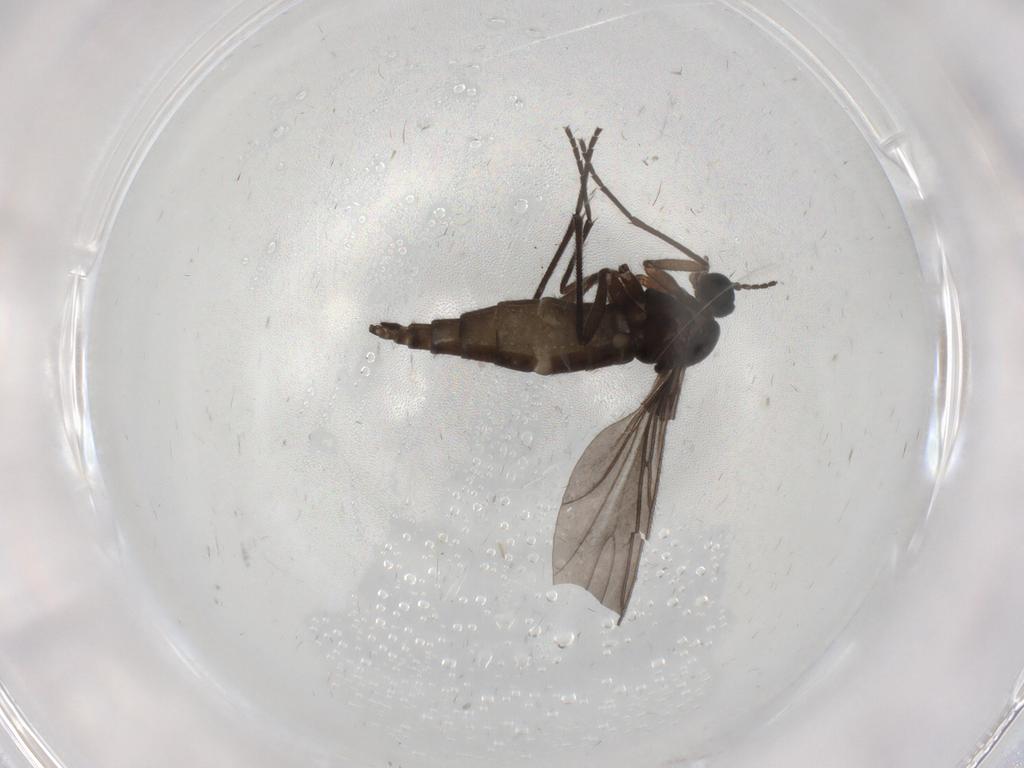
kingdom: Animalia
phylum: Arthropoda
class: Insecta
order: Diptera
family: Sciaridae
